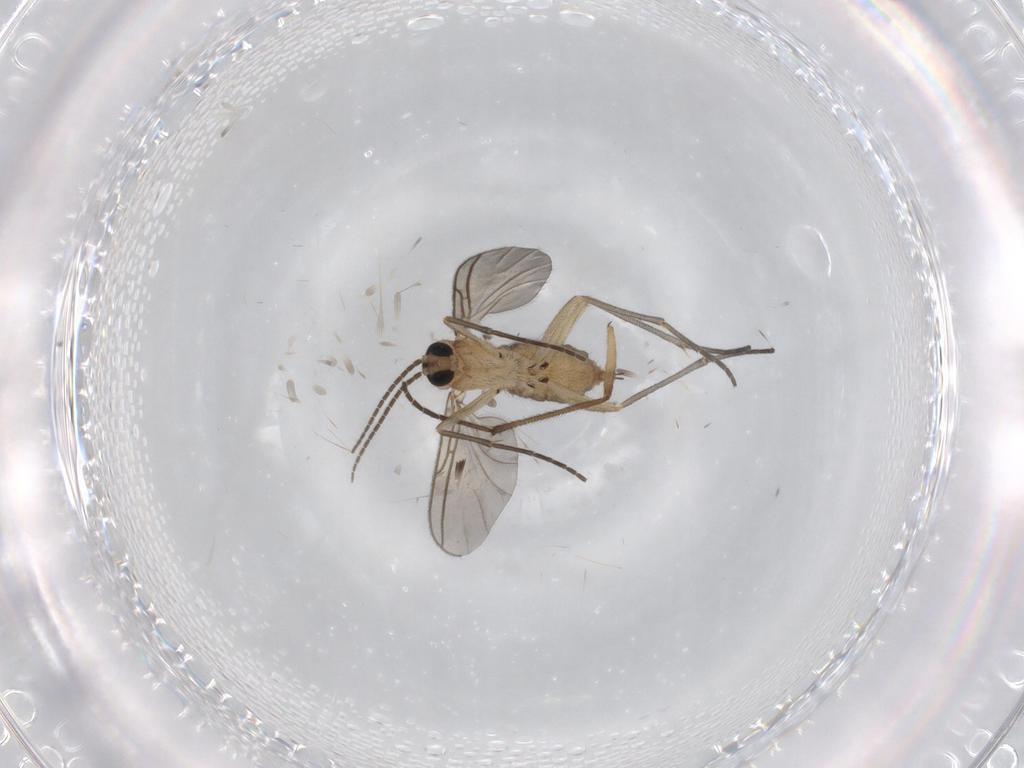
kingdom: Animalia
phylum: Arthropoda
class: Insecta
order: Diptera
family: Sciaridae
